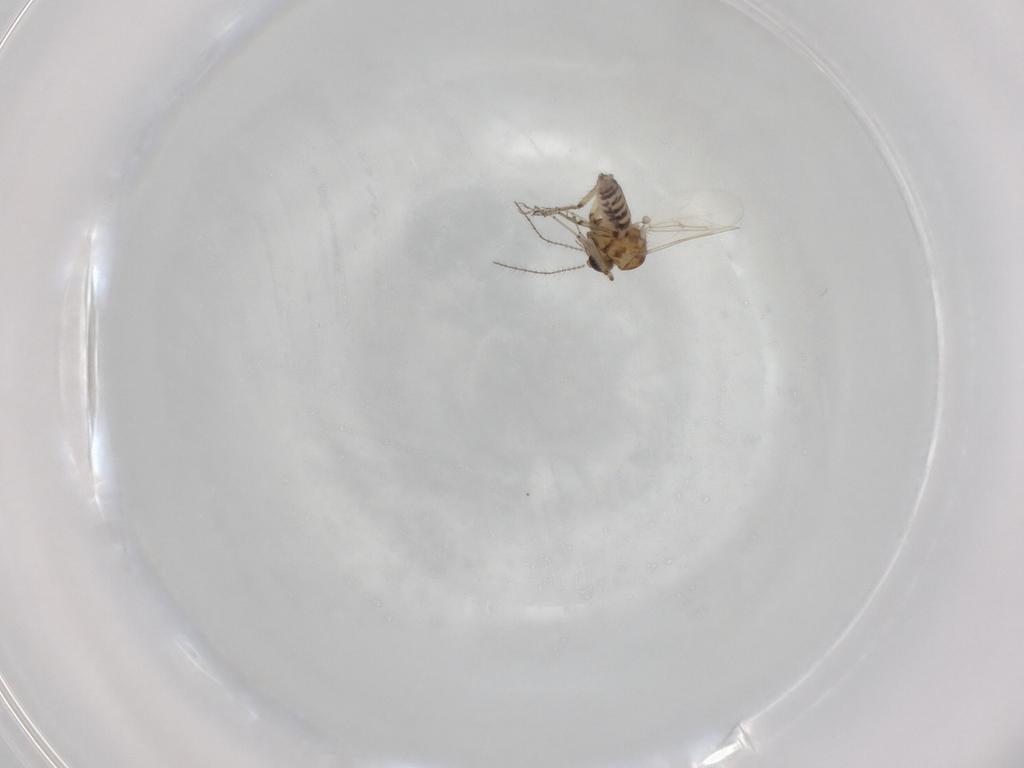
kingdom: Animalia
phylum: Arthropoda
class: Insecta
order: Diptera
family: Ceratopogonidae
